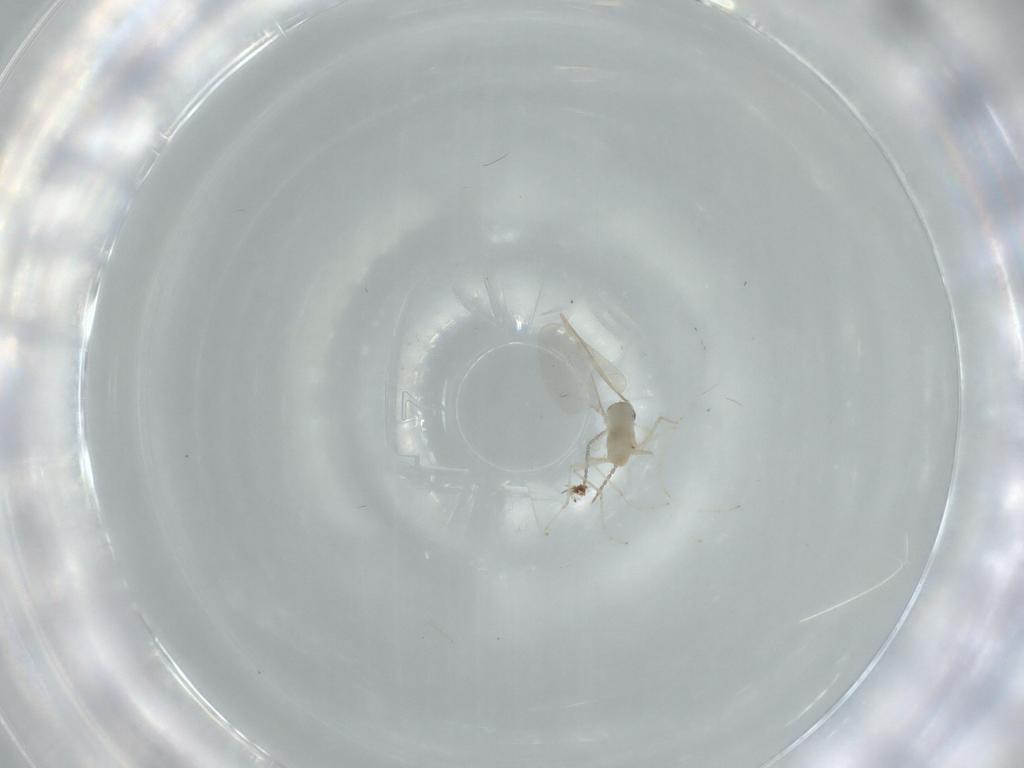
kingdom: Animalia
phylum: Arthropoda
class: Insecta
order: Diptera
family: Cecidomyiidae
